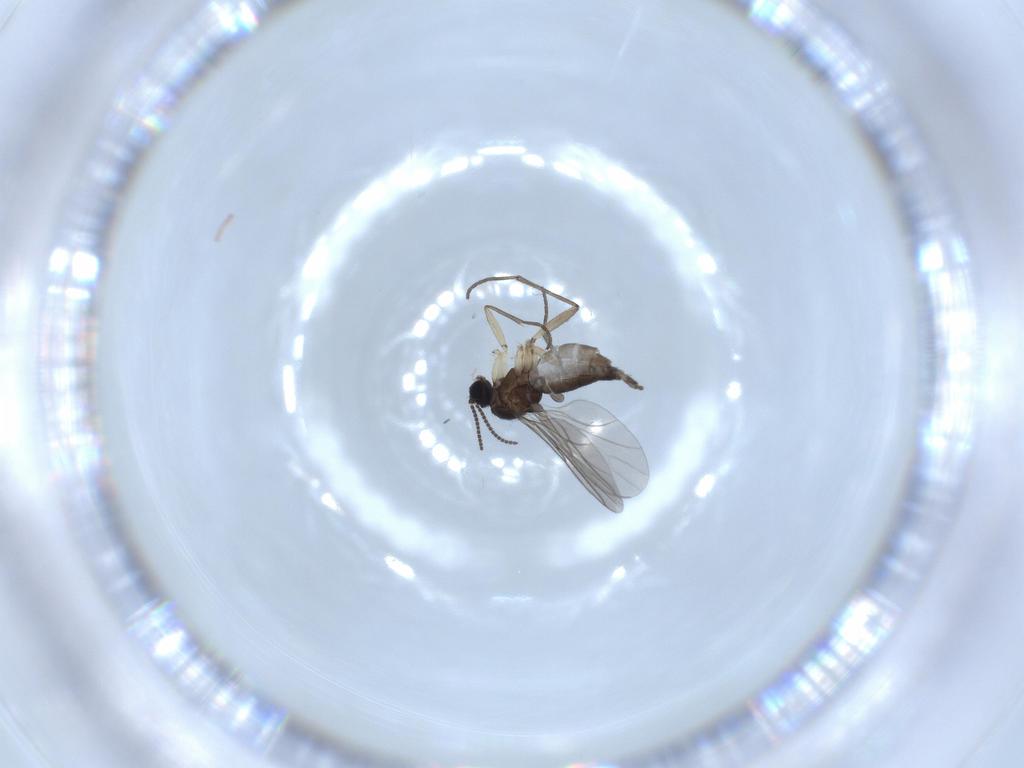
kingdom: Animalia
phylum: Arthropoda
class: Insecta
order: Diptera
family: Sciaridae
